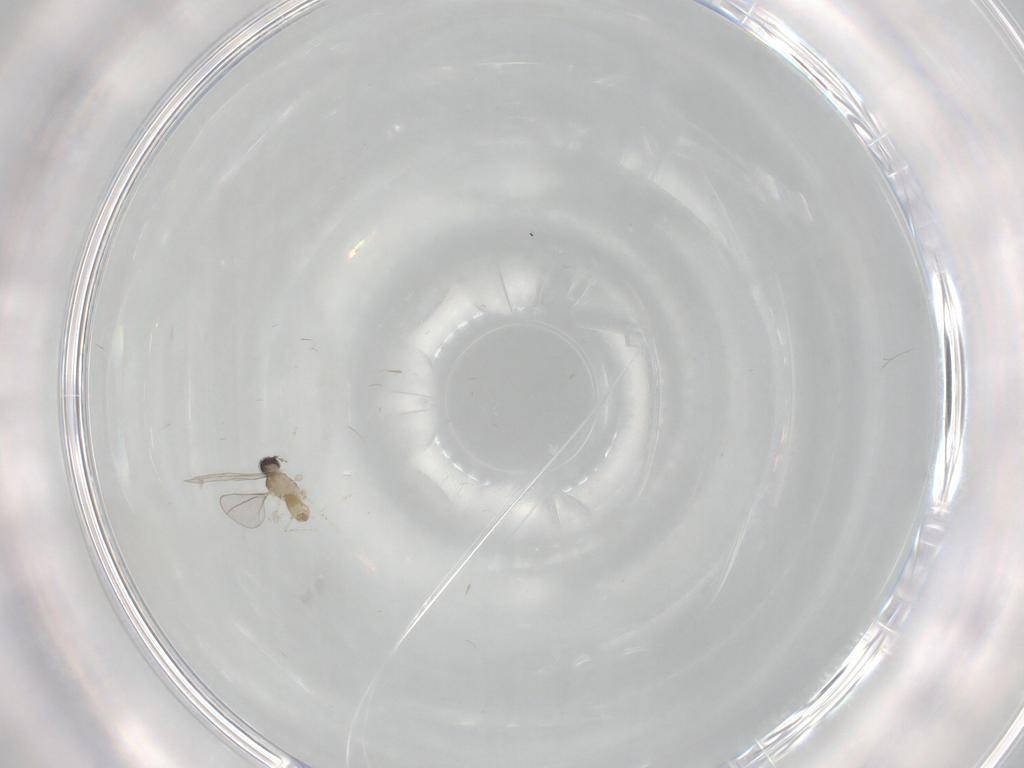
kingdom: Animalia
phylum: Arthropoda
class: Insecta
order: Diptera
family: Cecidomyiidae
